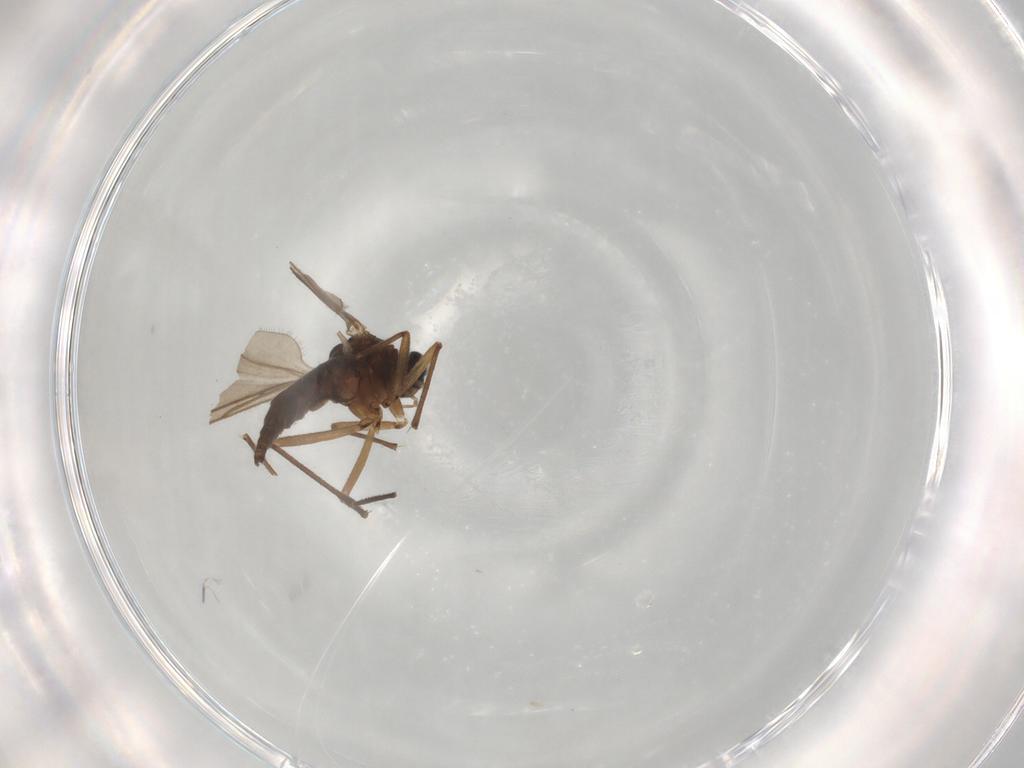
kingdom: Animalia
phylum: Arthropoda
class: Insecta
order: Diptera
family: Sciaridae
